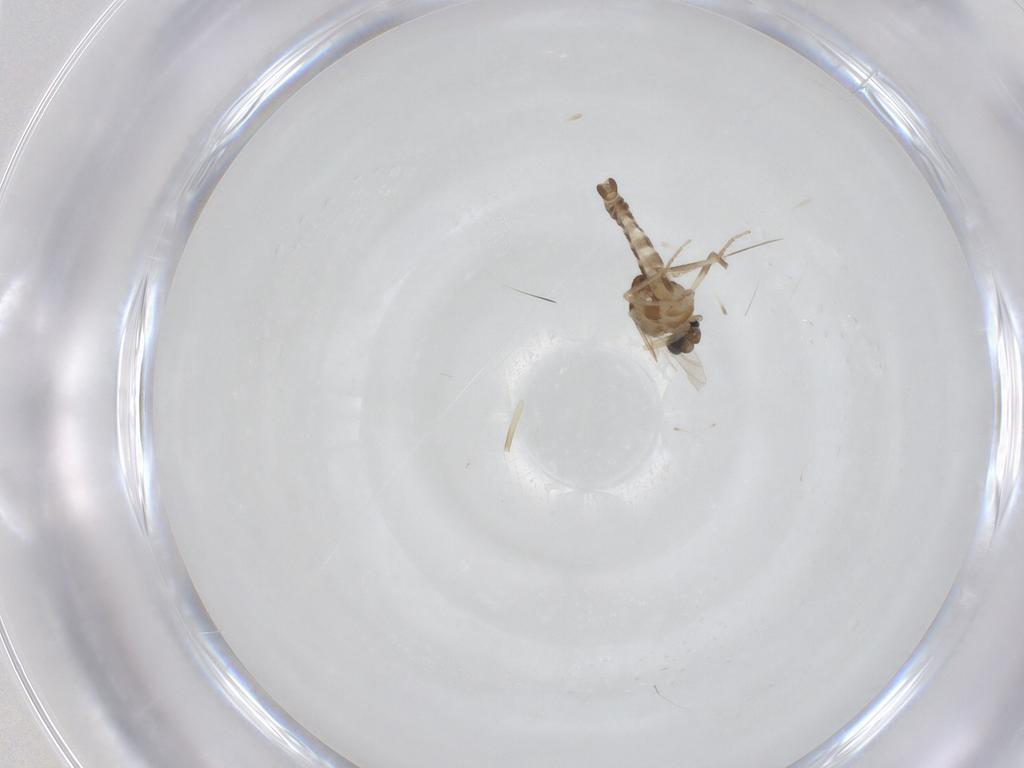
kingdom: Animalia
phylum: Arthropoda
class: Insecta
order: Diptera
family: Ceratopogonidae
